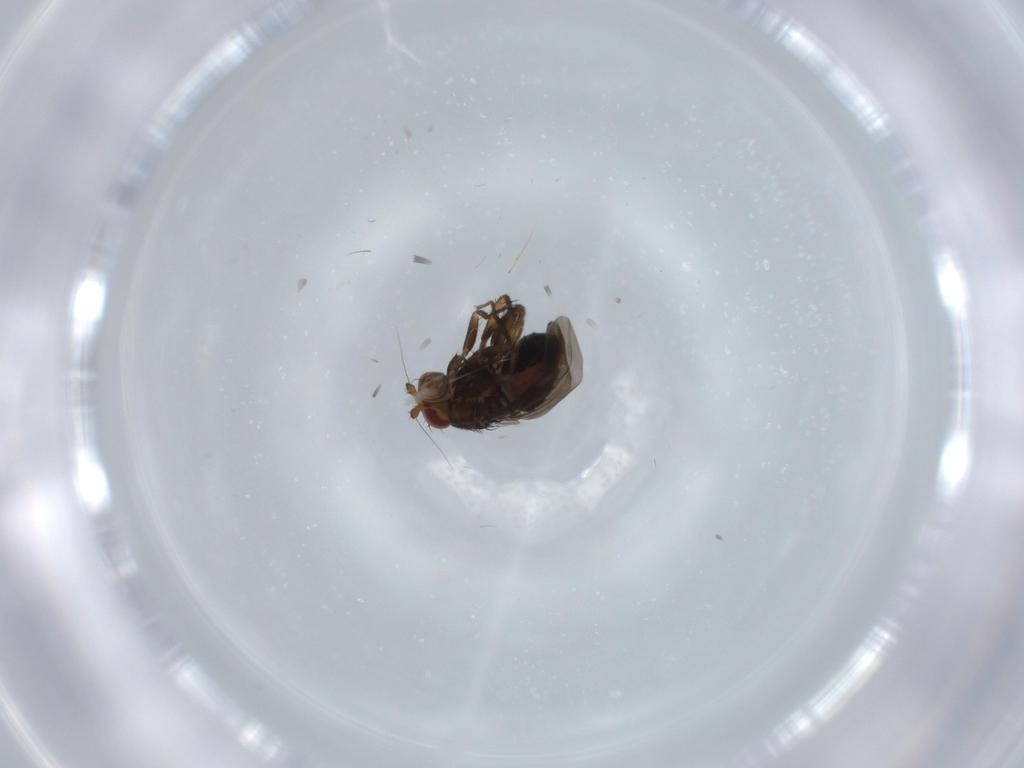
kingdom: Animalia
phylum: Arthropoda
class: Insecta
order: Diptera
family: Sphaeroceridae
